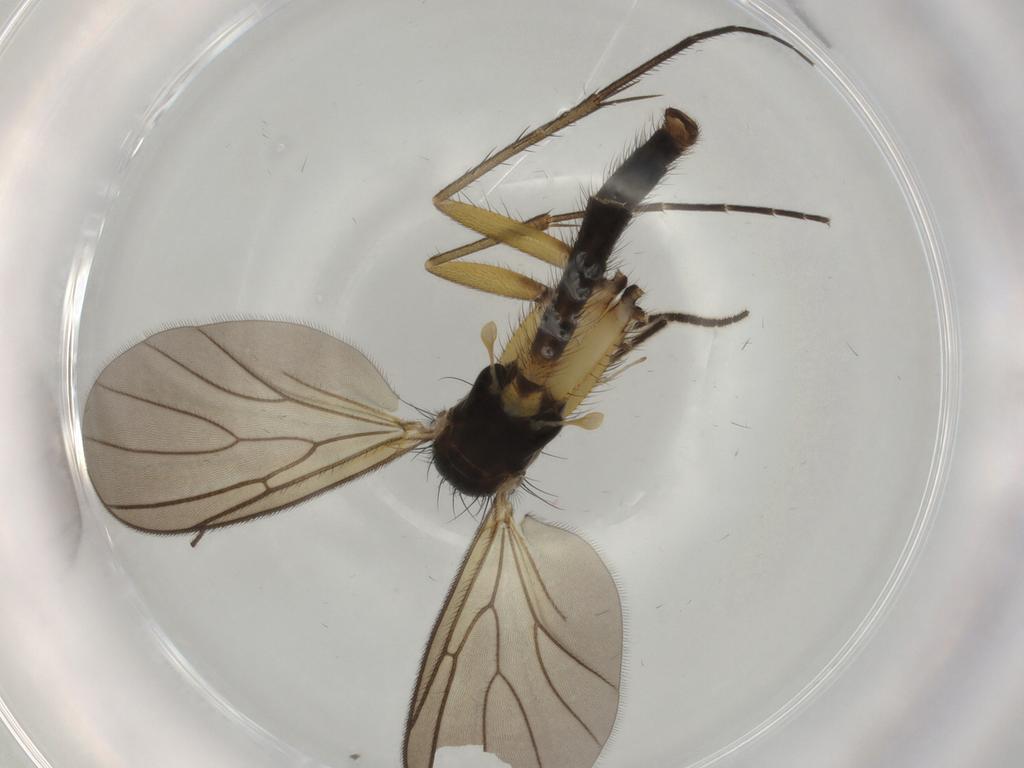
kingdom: Animalia
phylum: Arthropoda
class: Insecta
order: Diptera
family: Mycetophilidae
